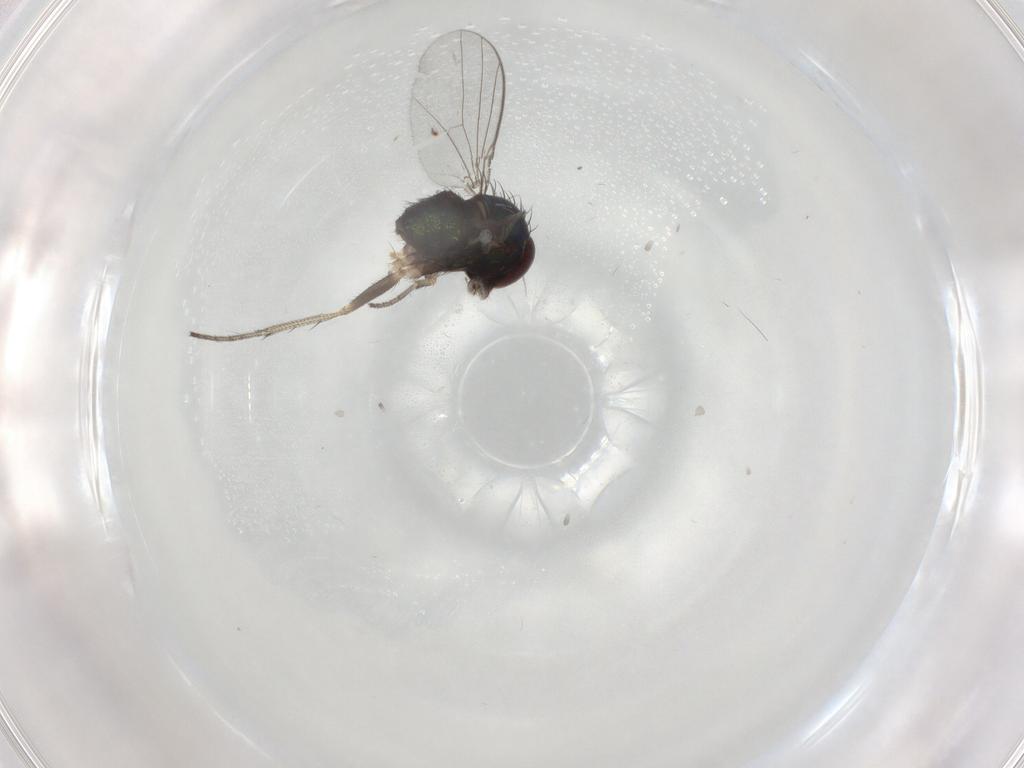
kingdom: Animalia
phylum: Arthropoda
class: Insecta
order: Diptera
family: Dolichopodidae
